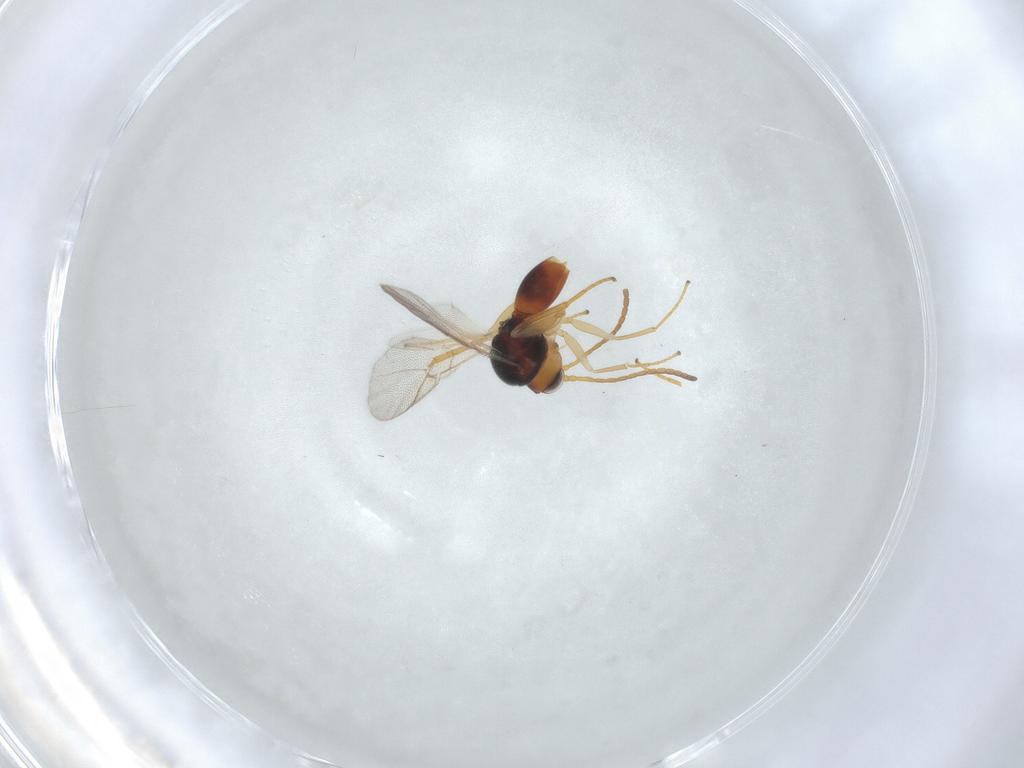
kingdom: Animalia
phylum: Arthropoda
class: Insecta
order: Hymenoptera
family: Cynipidae
